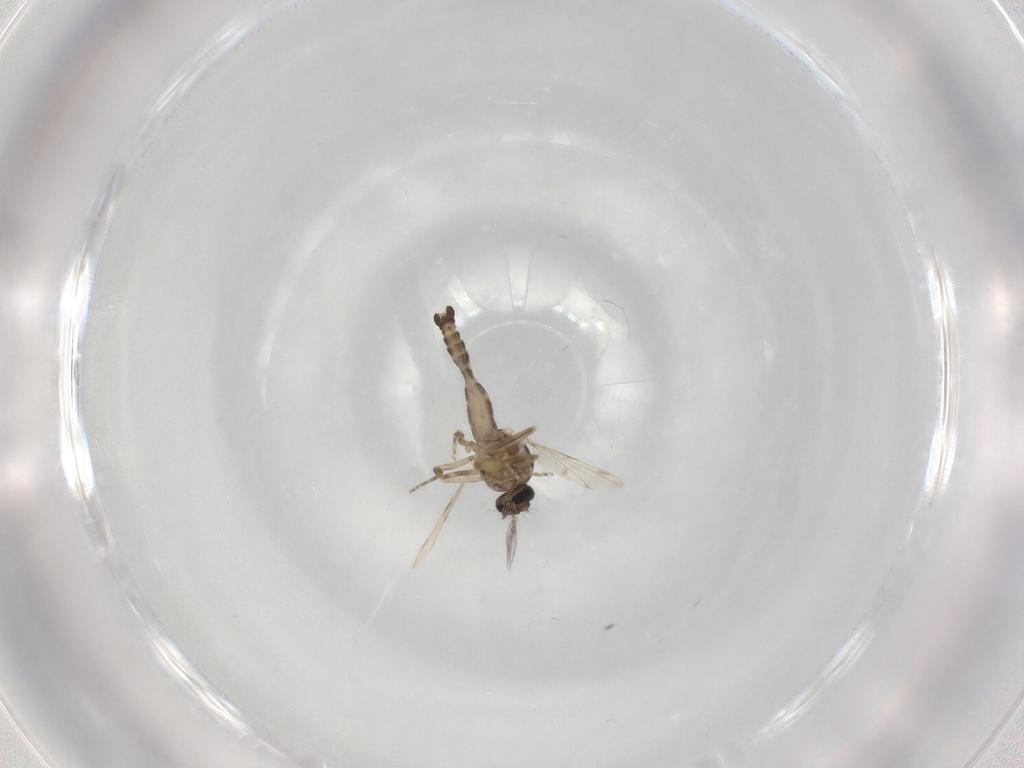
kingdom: Animalia
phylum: Arthropoda
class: Insecta
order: Diptera
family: Ceratopogonidae
